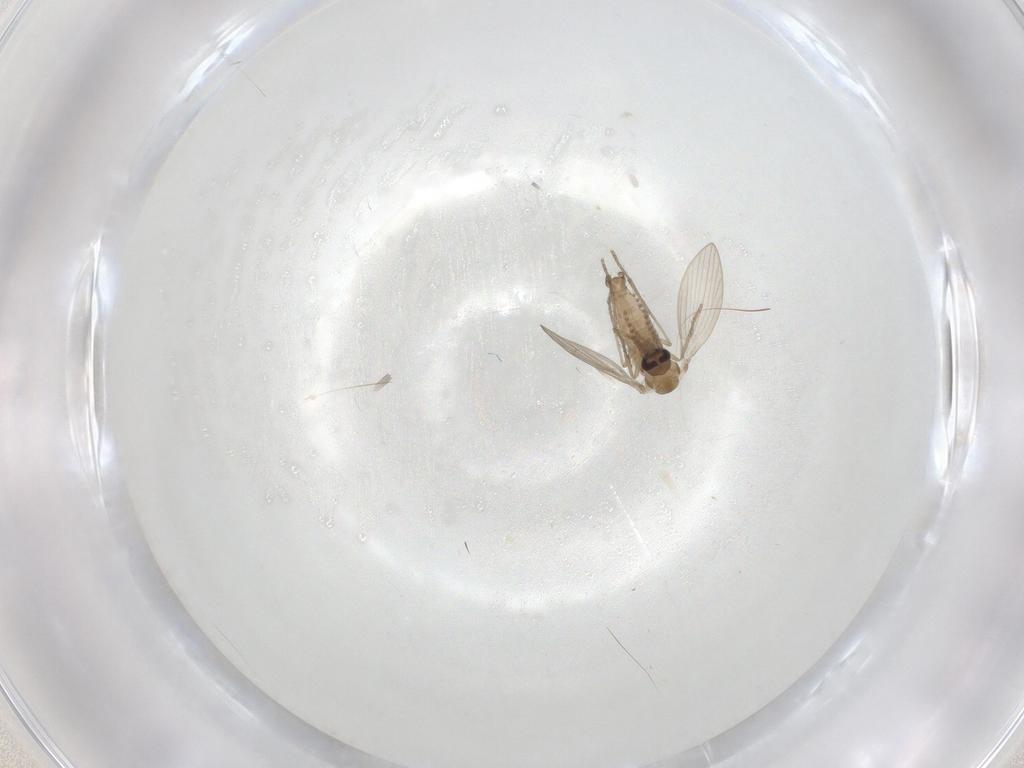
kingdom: Animalia
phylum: Arthropoda
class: Insecta
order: Diptera
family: Psychodidae
